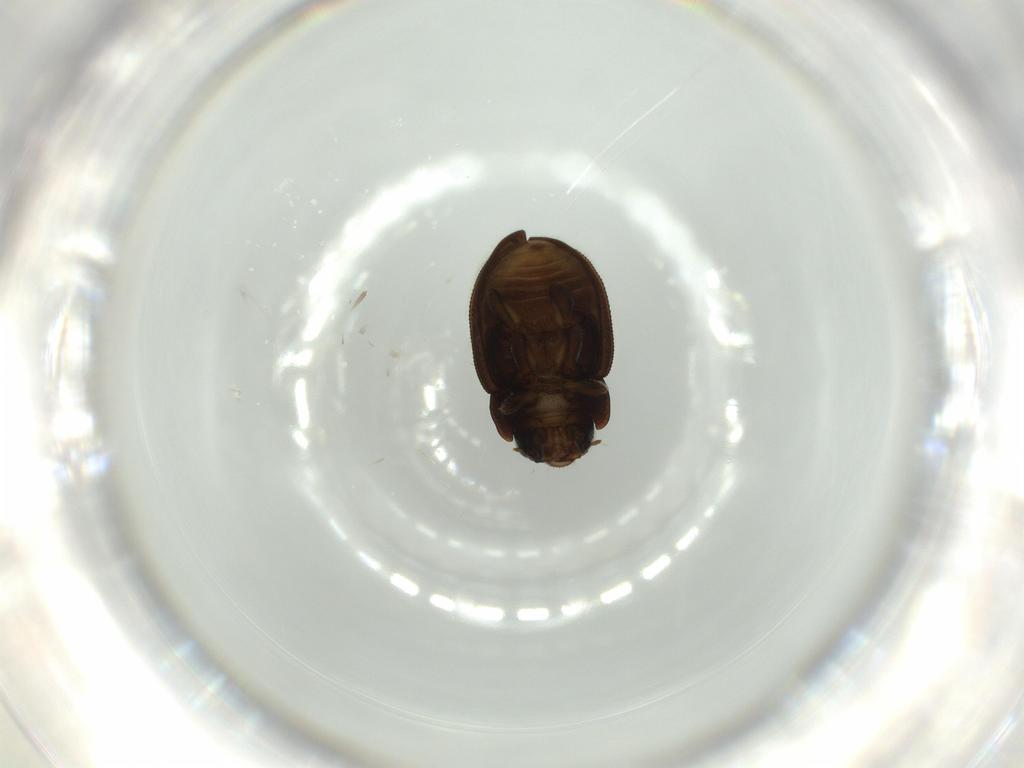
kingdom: Animalia
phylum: Arthropoda
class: Insecta
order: Coleoptera
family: Coccinellidae
